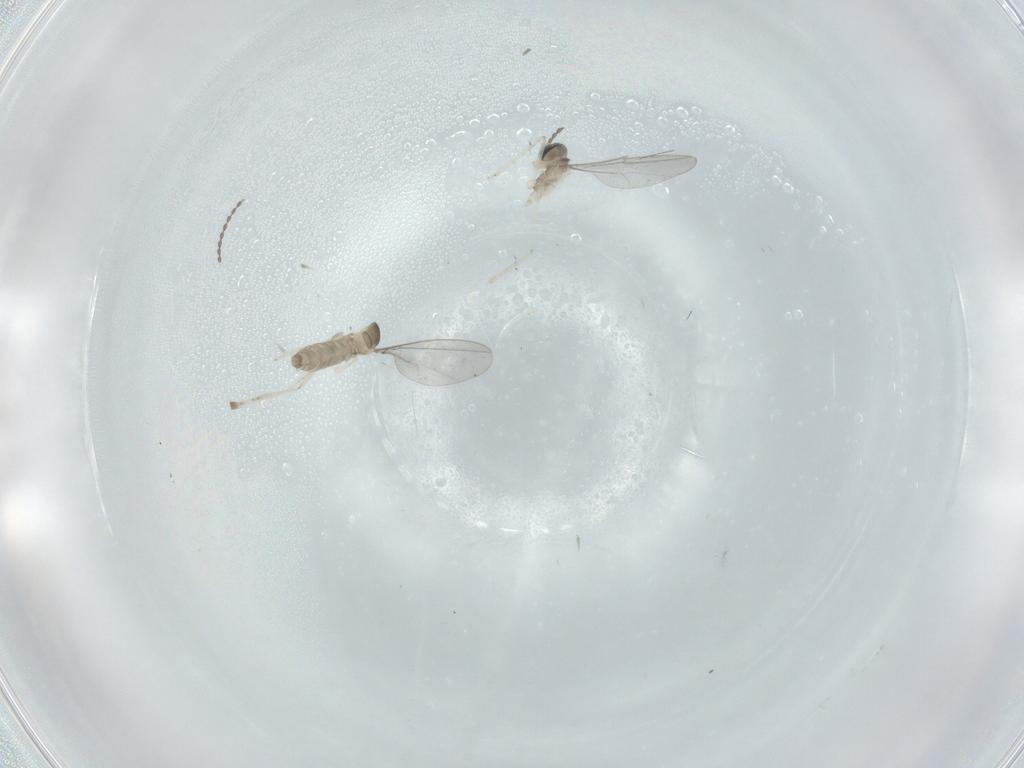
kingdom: Animalia
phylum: Arthropoda
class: Insecta
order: Diptera
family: Cecidomyiidae
